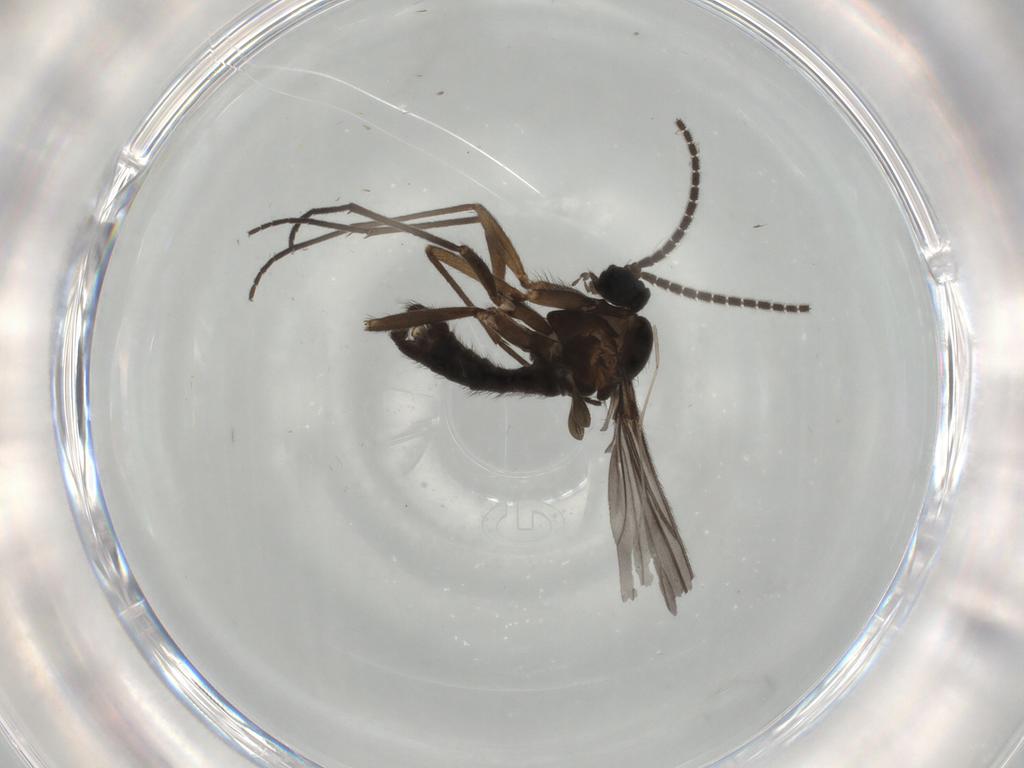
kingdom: Animalia
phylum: Arthropoda
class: Insecta
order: Diptera
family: Sciaridae
